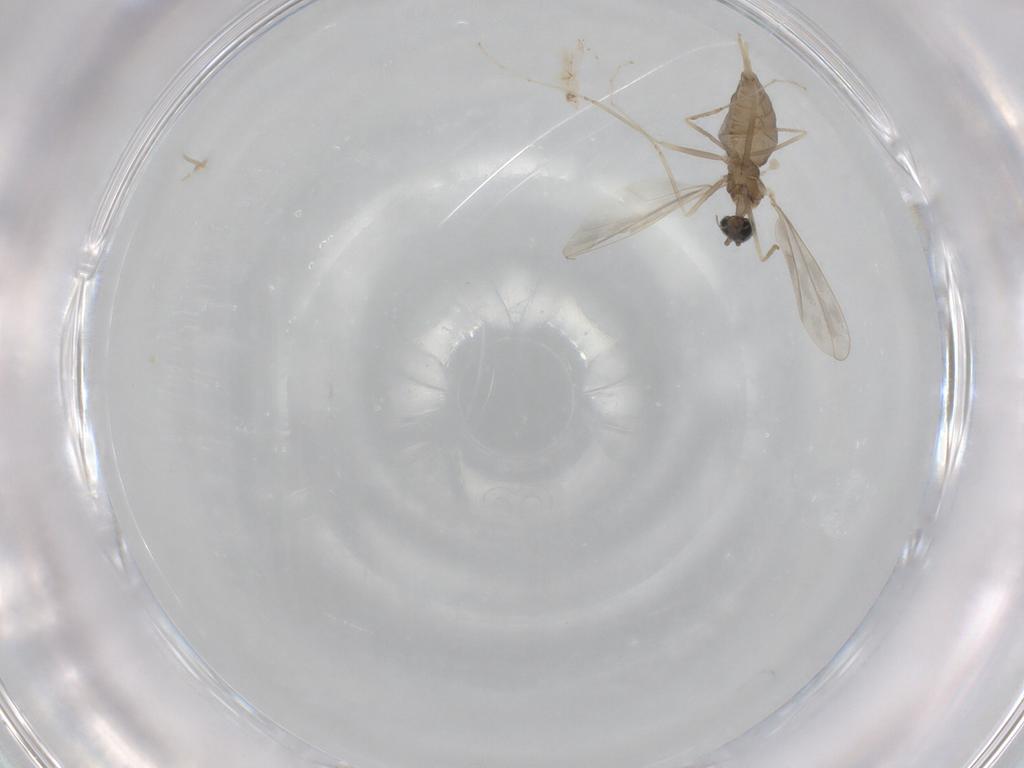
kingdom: Animalia
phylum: Arthropoda
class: Insecta
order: Diptera
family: Cecidomyiidae
